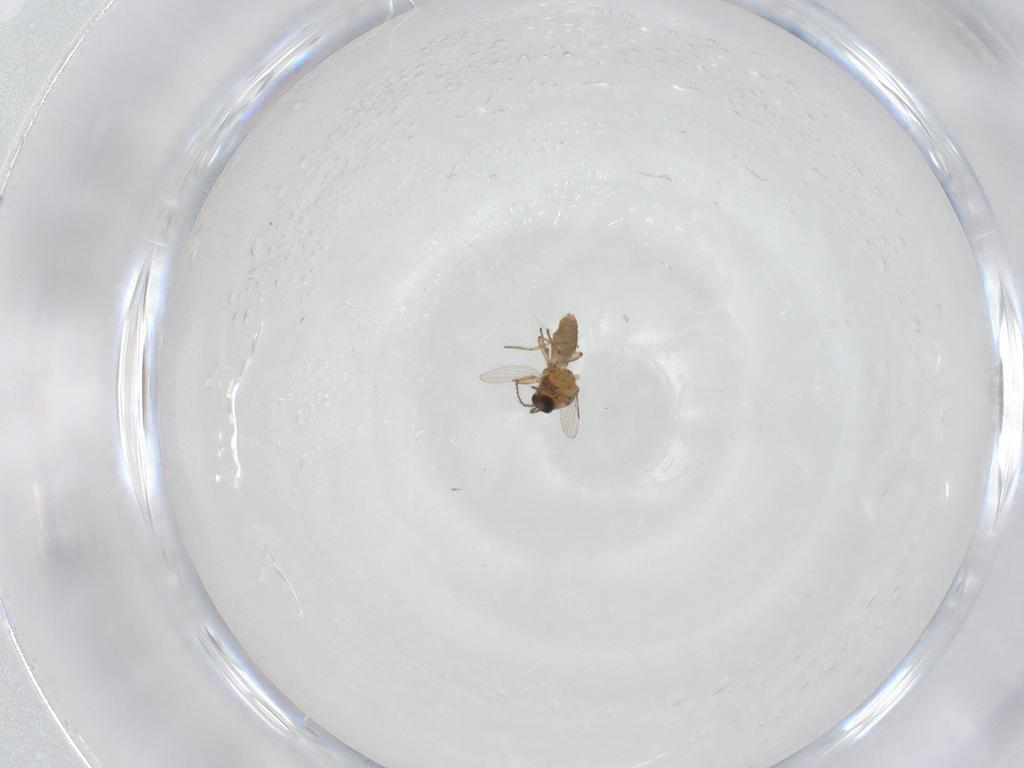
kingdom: Animalia
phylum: Arthropoda
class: Insecta
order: Diptera
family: Ceratopogonidae
